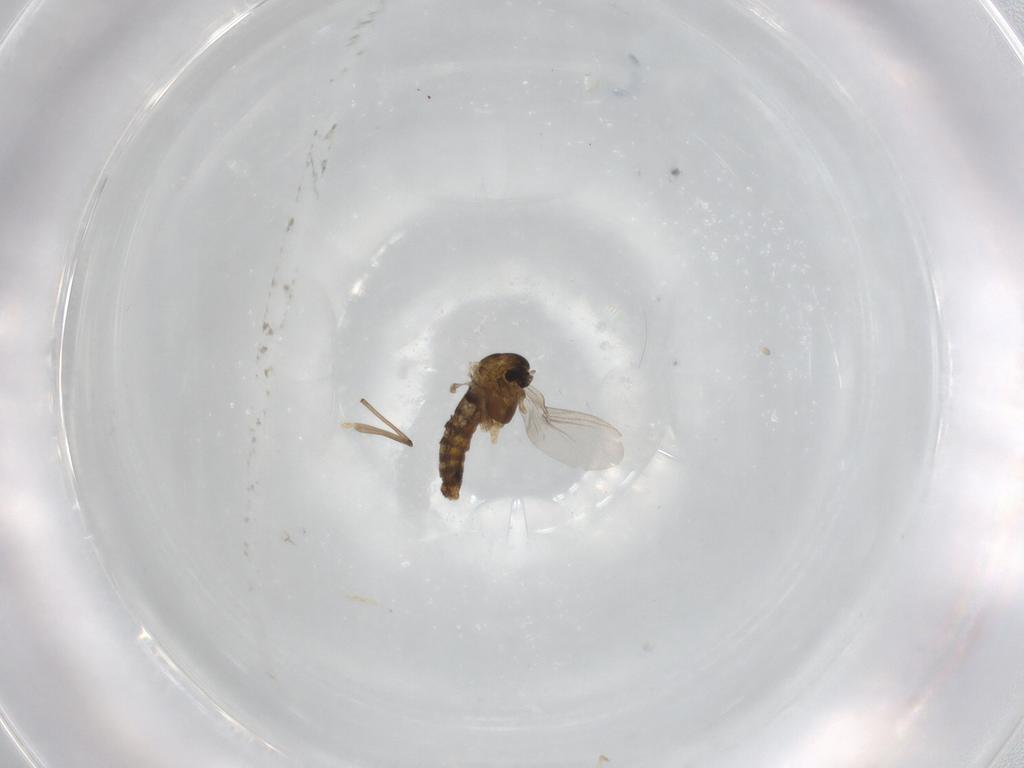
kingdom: Animalia
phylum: Arthropoda
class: Insecta
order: Diptera
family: Chironomidae
